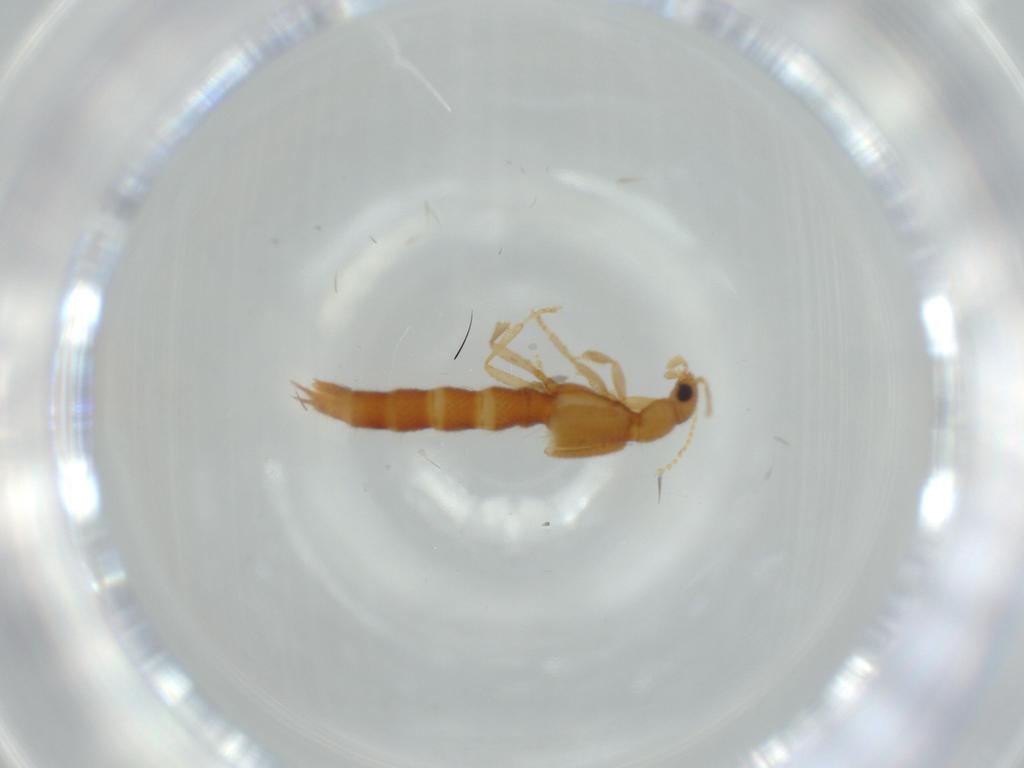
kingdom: Animalia
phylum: Arthropoda
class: Insecta
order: Coleoptera
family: Staphylinidae
